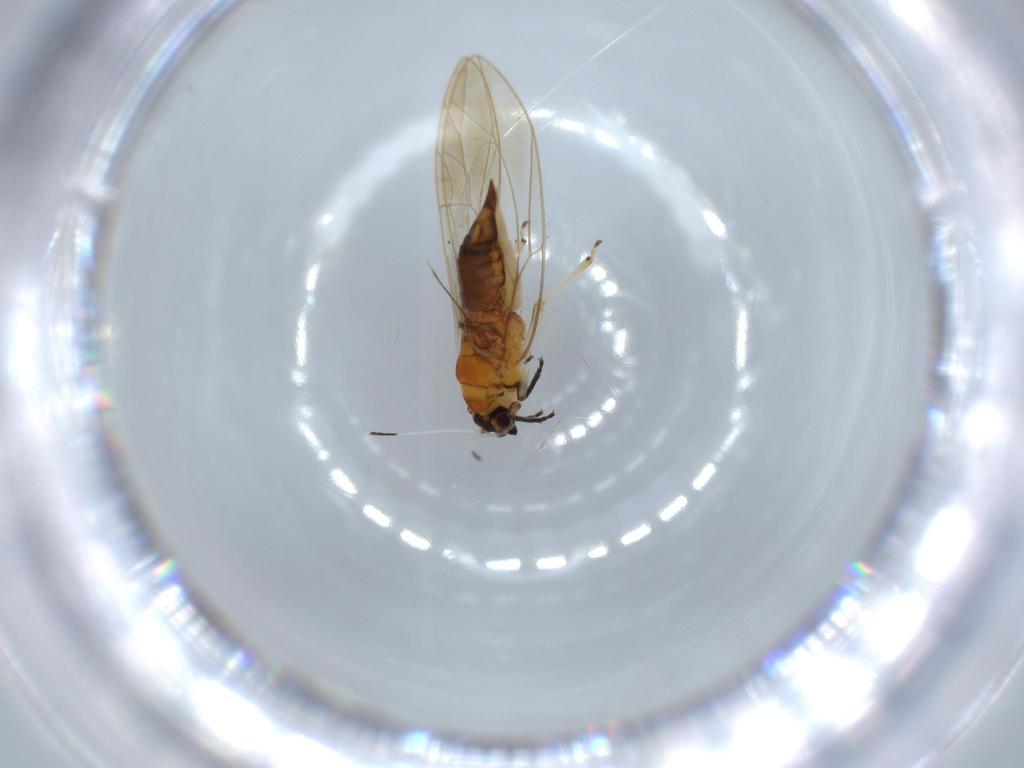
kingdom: Animalia
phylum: Arthropoda
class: Insecta
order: Hemiptera
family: Triozidae
